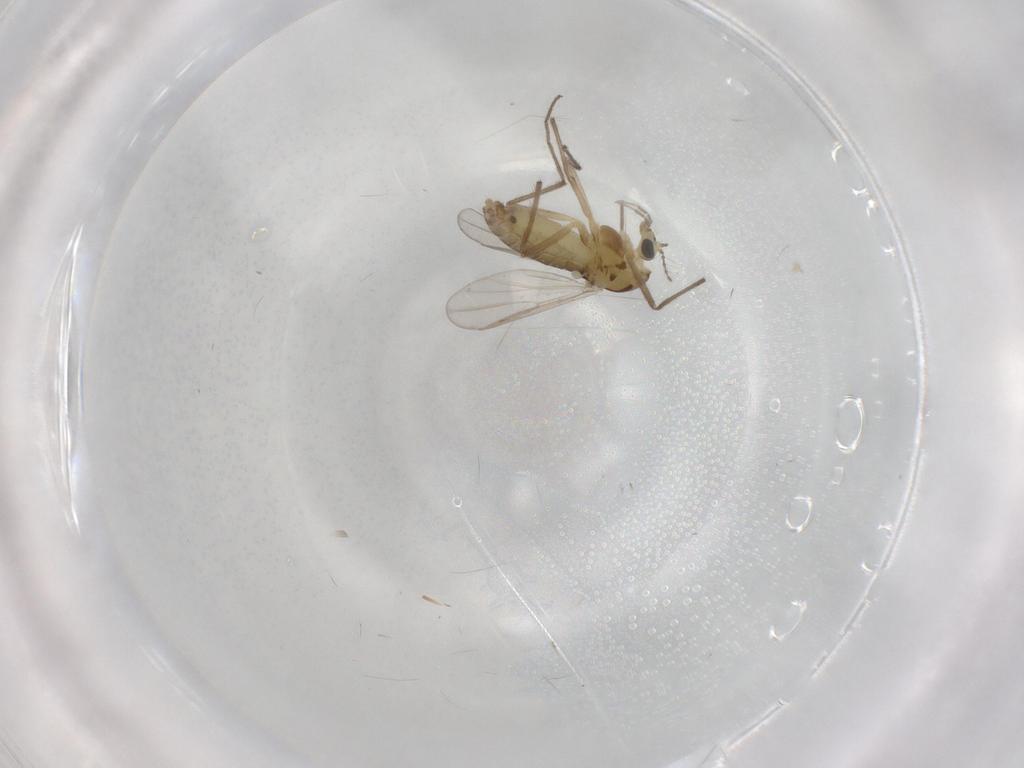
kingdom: Animalia
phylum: Arthropoda
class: Insecta
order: Diptera
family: Chironomidae
